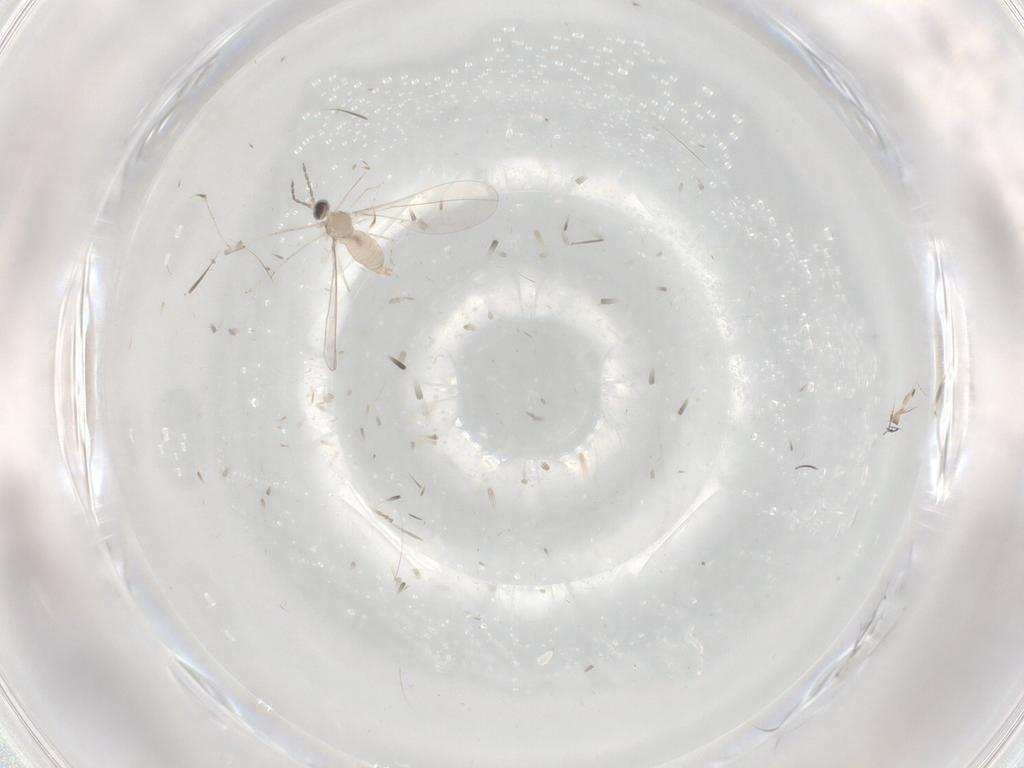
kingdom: Animalia
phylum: Arthropoda
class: Insecta
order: Diptera
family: Cecidomyiidae
